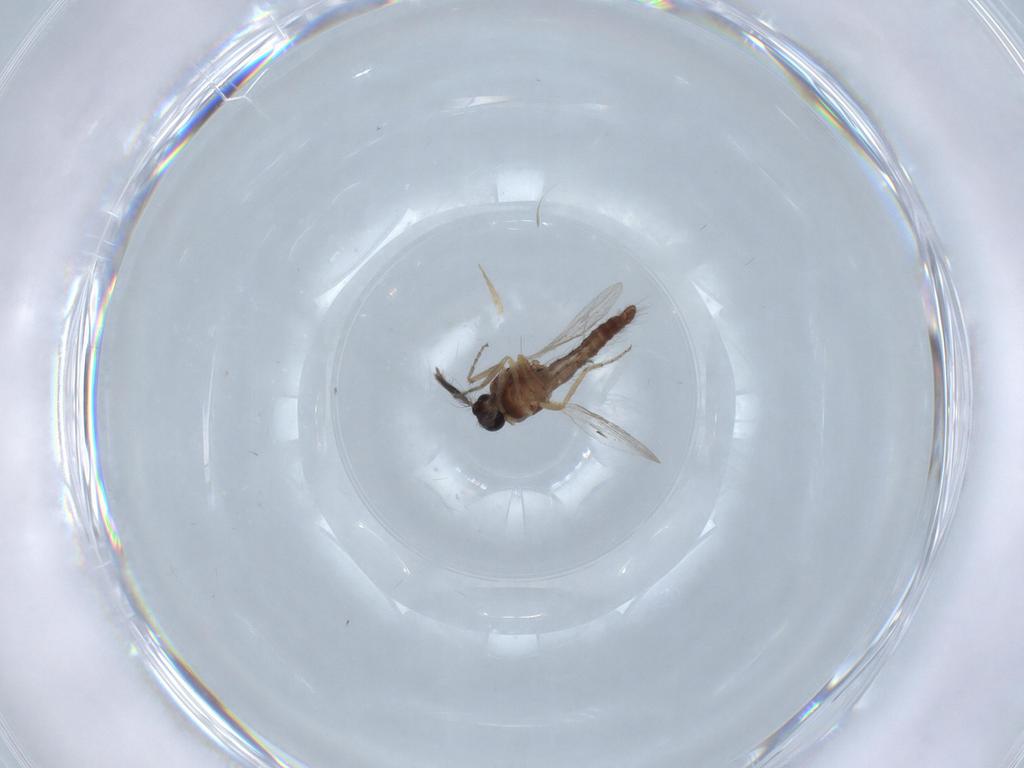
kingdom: Animalia
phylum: Arthropoda
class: Insecta
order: Diptera
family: Ceratopogonidae
